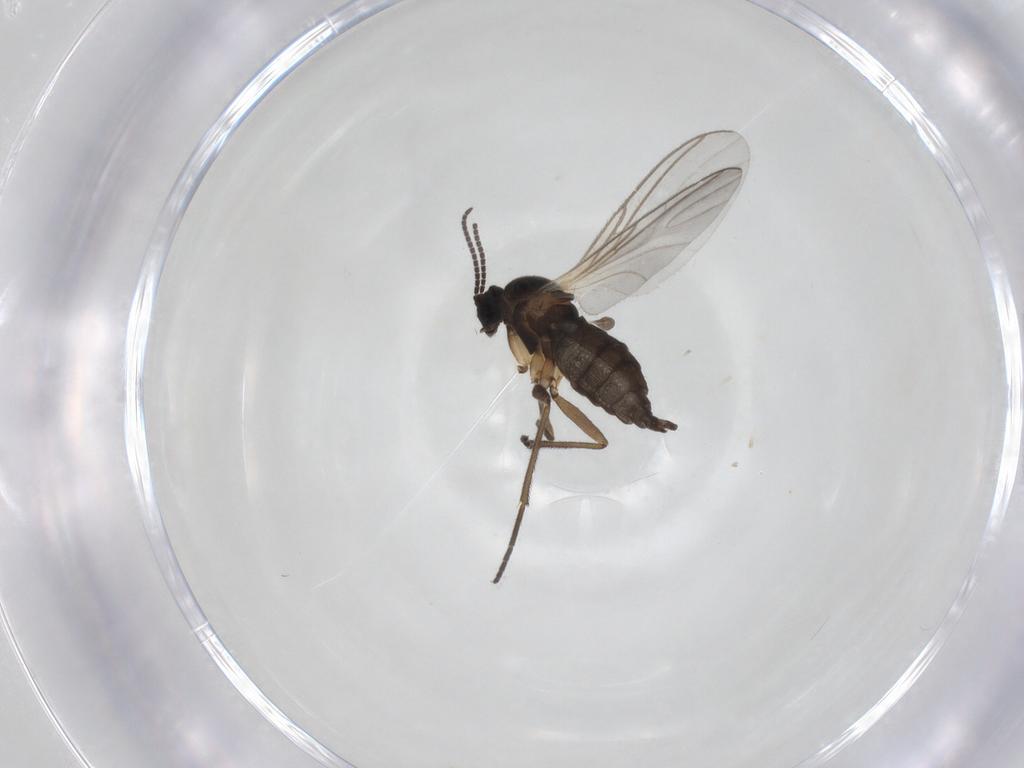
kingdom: Animalia
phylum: Arthropoda
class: Insecta
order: Diptera
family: Sciaridae
